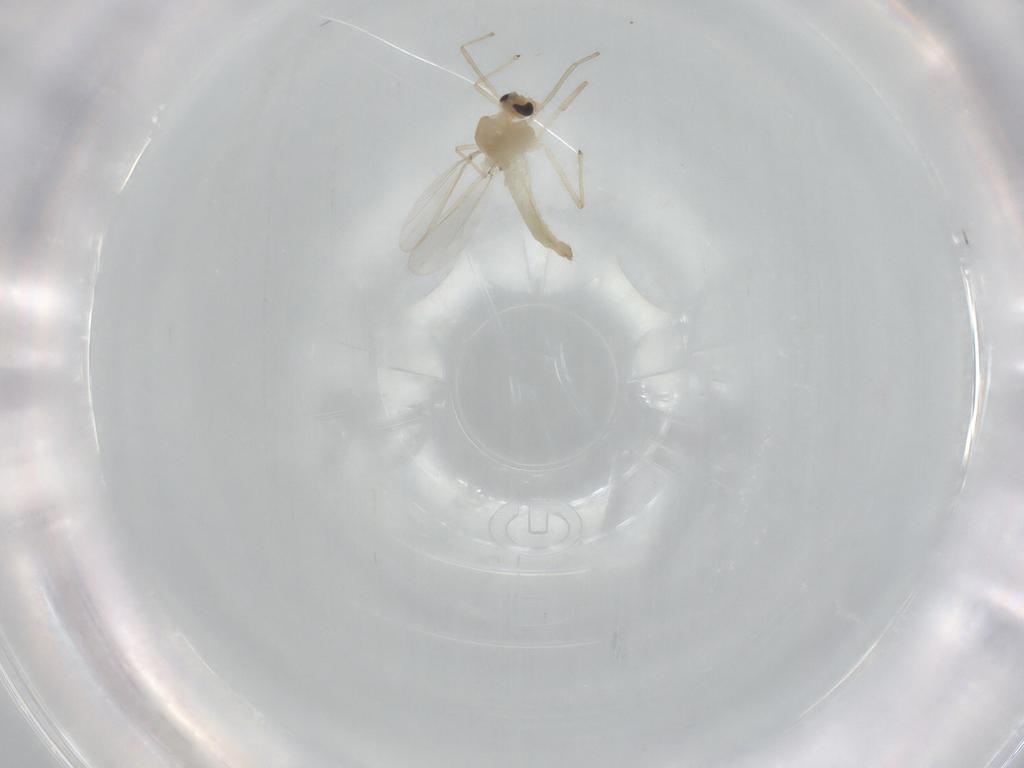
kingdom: Animalia
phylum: Arthropoda
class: Insecta
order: Diptera
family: Chironomidae
